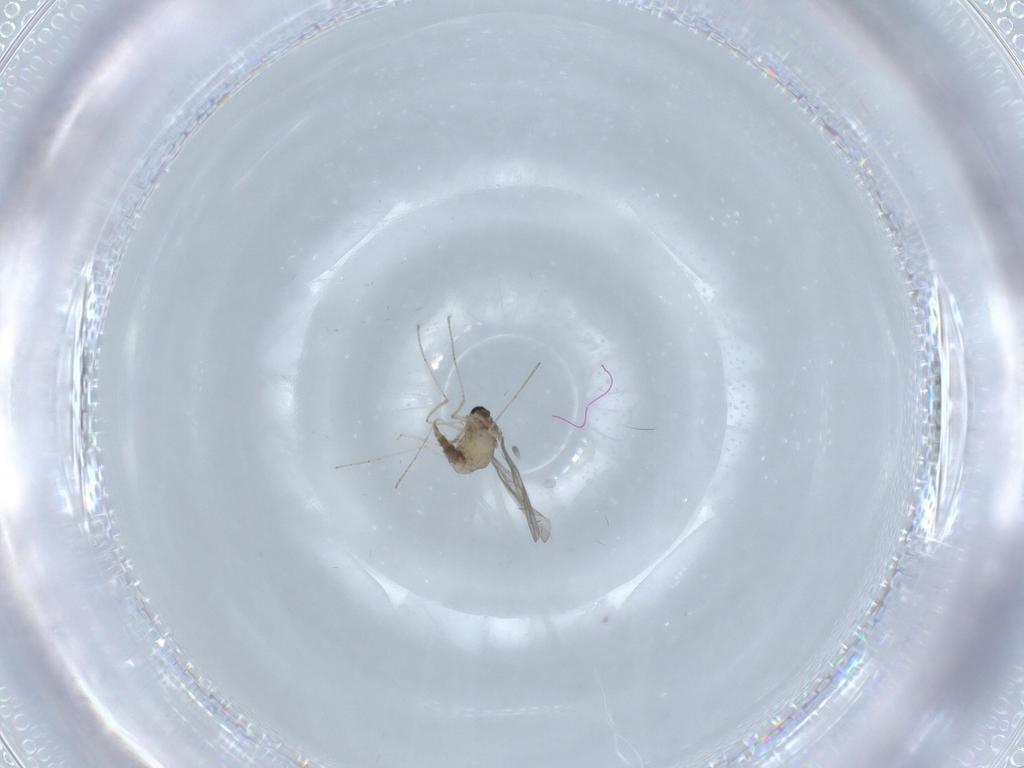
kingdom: Animalia
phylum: Arthropoda
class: Insecta
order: Diptera
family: Cecidomyiidae
